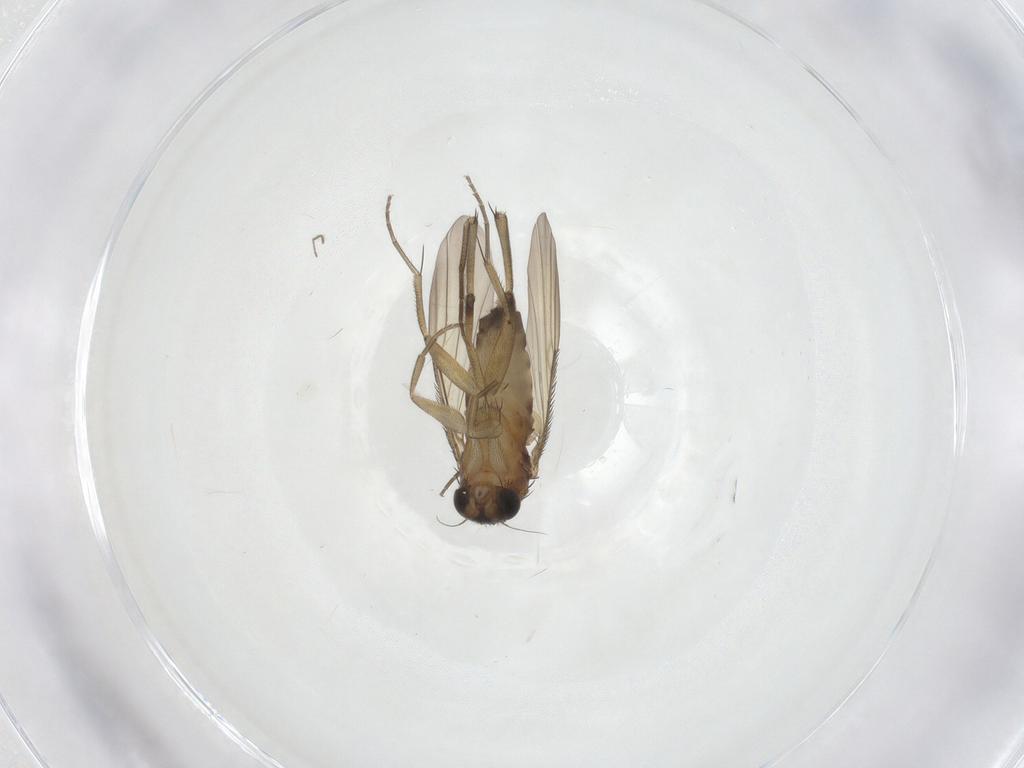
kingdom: Animalia
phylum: Arthropoda
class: Insecta
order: Diptera
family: Phoridae
